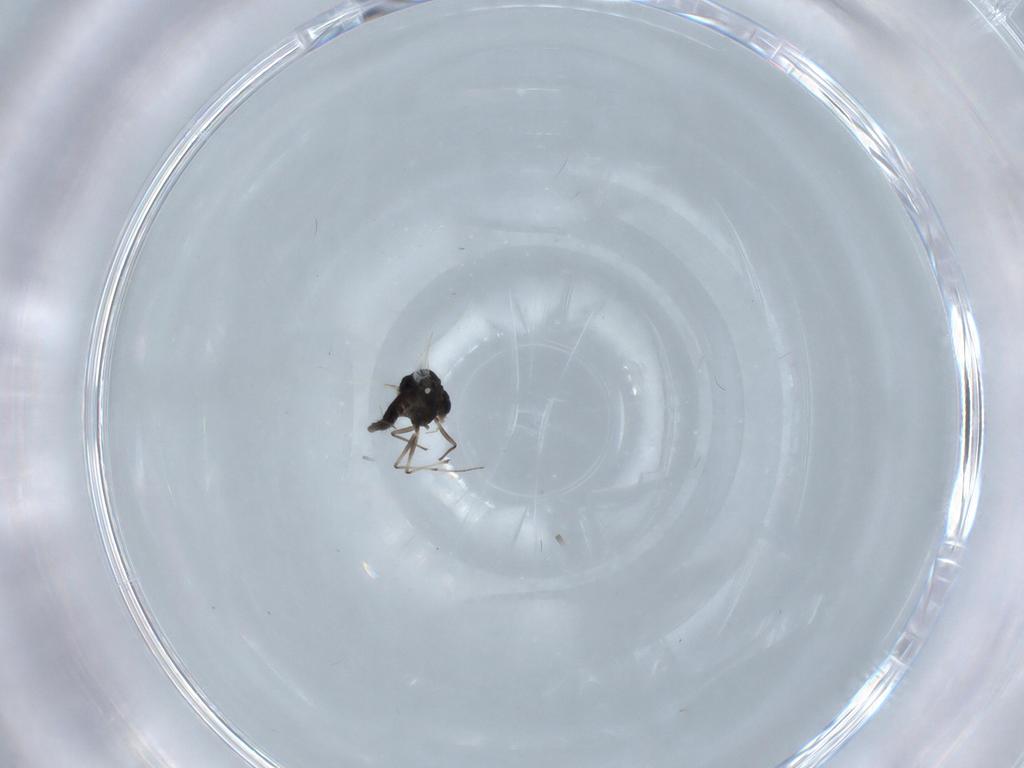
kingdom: Animalia
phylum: Arthropoda
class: Insecta
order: Diptera
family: Chironomidae
